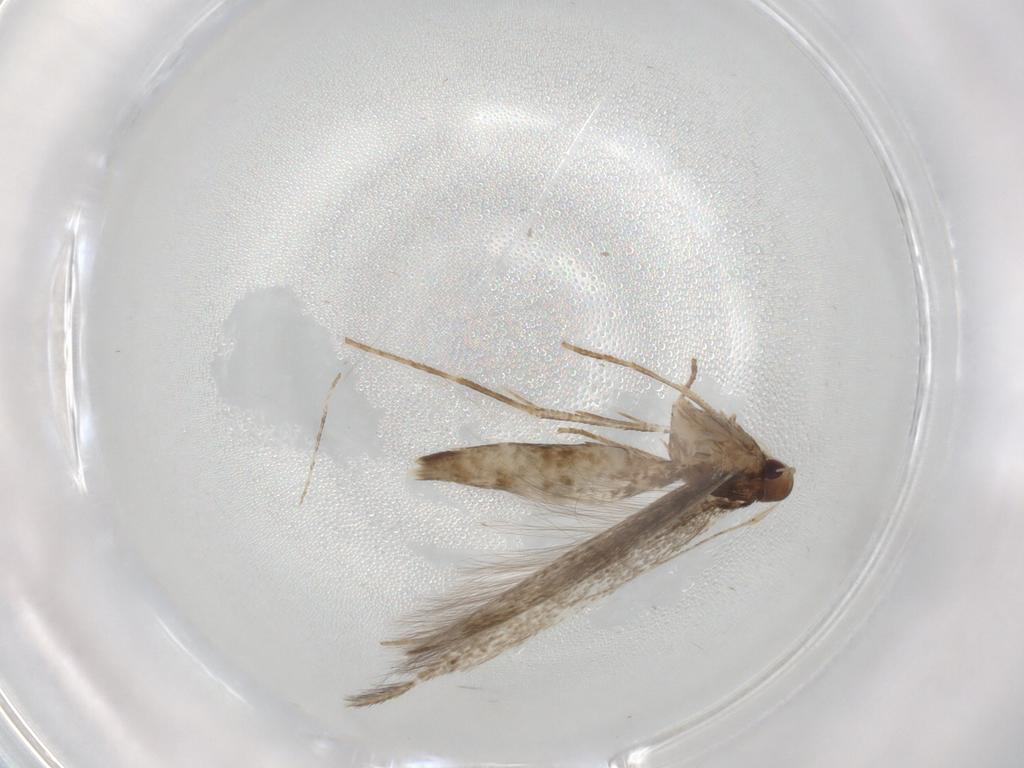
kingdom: Animalia
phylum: Arthropoda
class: Insecta
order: Lepidoptera
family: Cosmopterigidae
